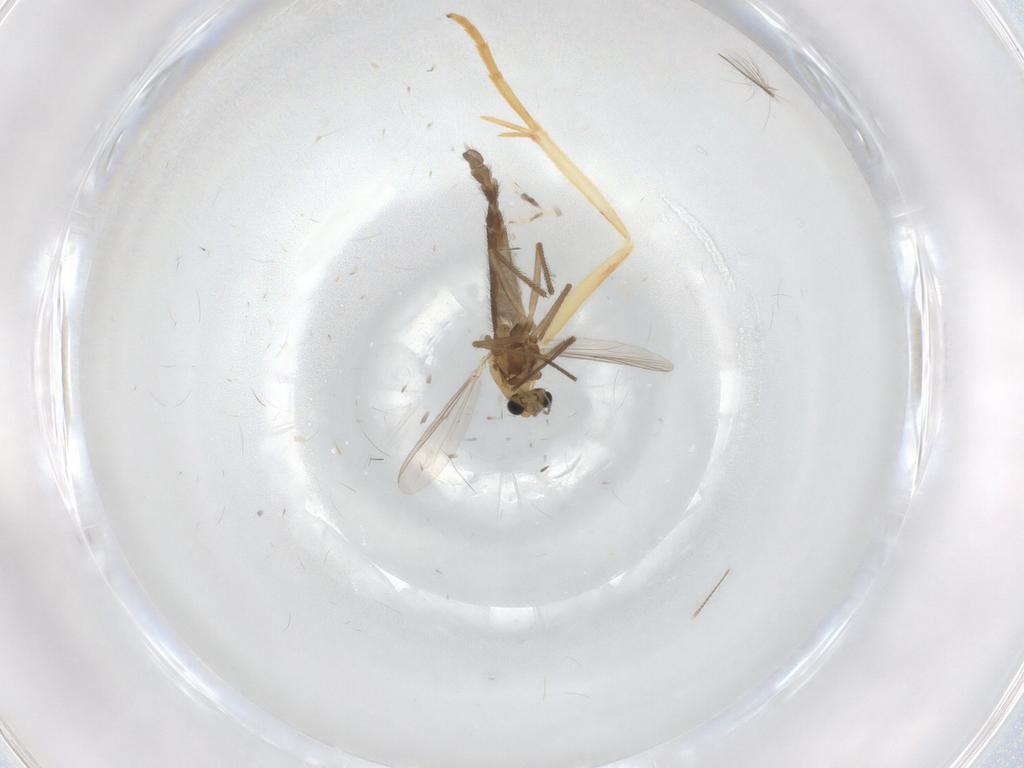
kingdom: Animalia
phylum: Arthropoda
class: Insecta
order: Diptera
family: Chironomidae
